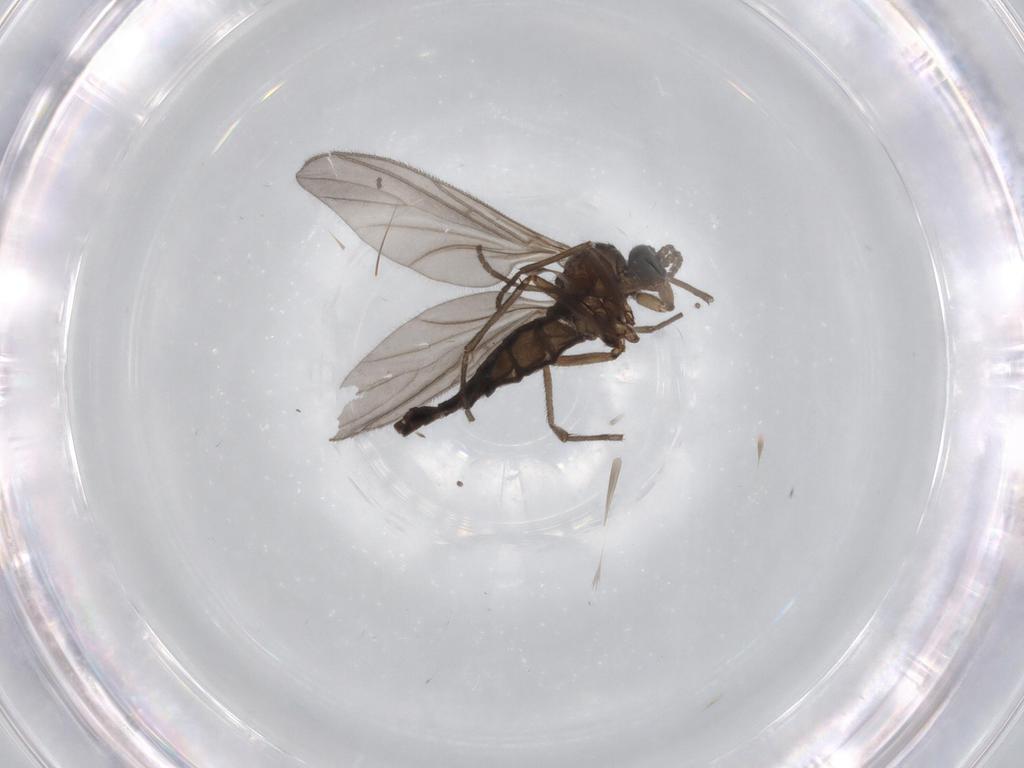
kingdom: Animalia
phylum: Arthropoda
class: Insecta
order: Diptera
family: Sciaridae
